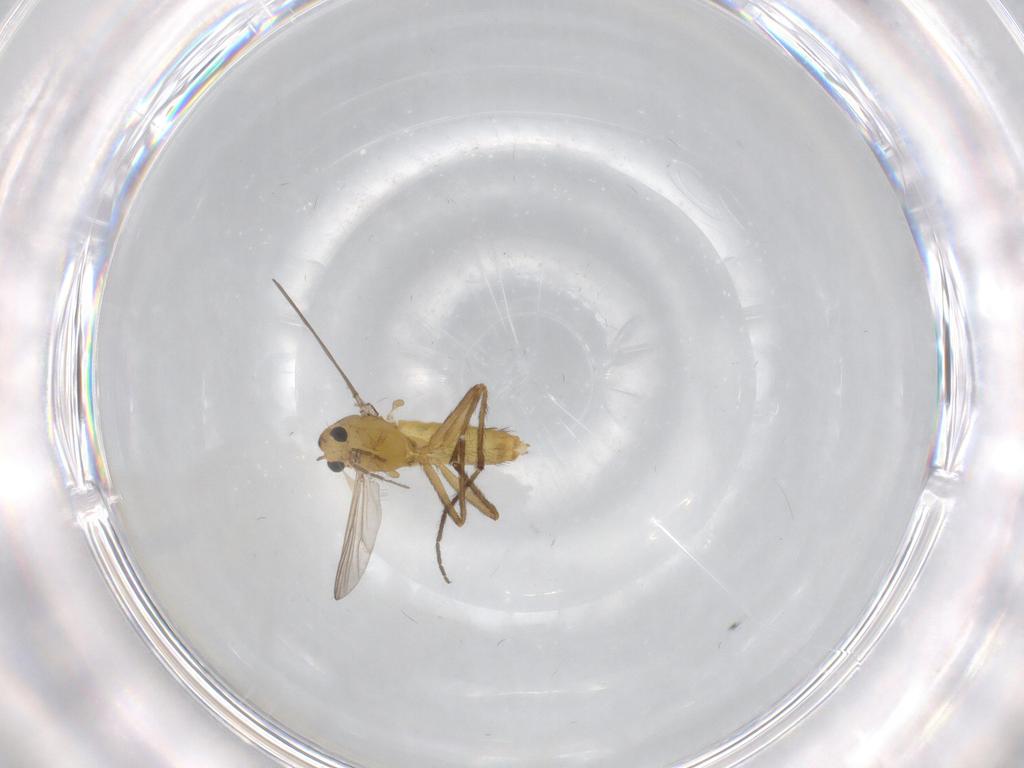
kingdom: Animalia
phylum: Arthropoda
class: Insecta
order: Diptera
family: Chironomidae
